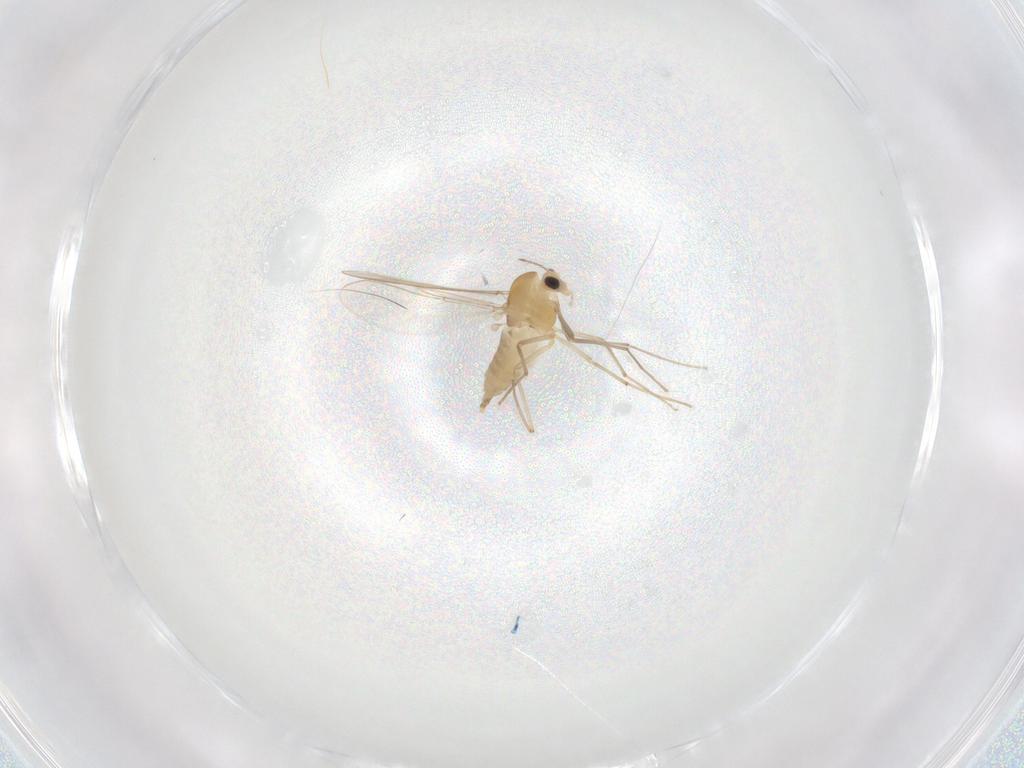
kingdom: Animalia
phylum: Arthropoda
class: Insecta
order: Diptera
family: Chironomidae
